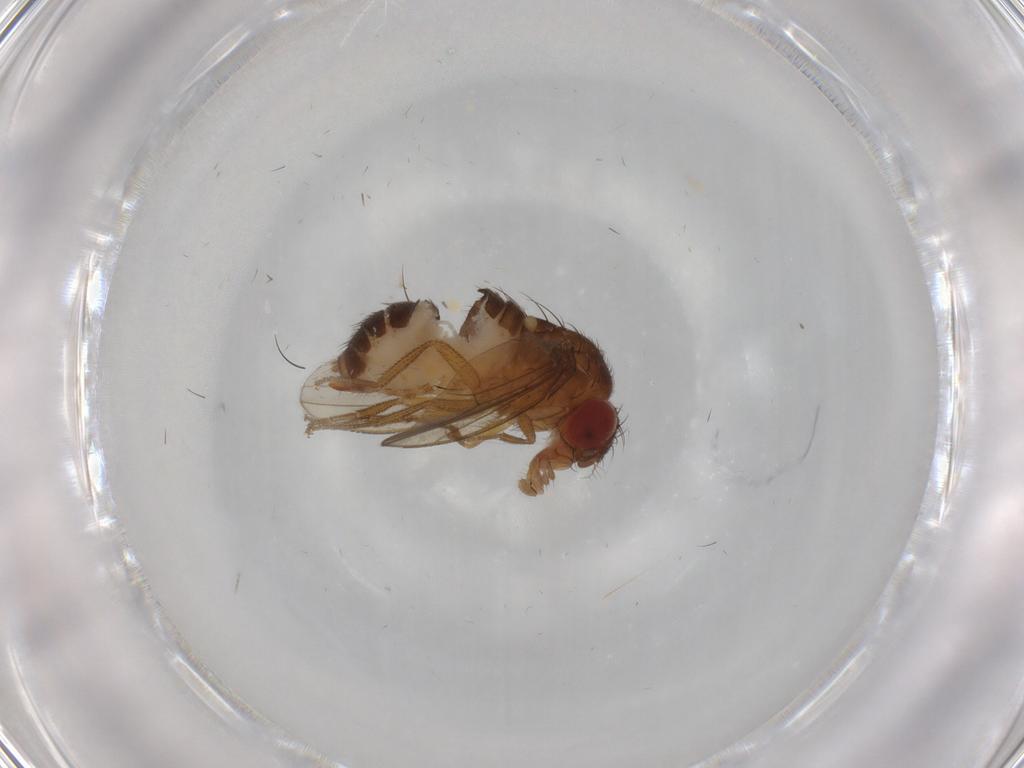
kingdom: Animalia
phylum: Arthropoda
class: Insecta
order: Diptera
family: Drosophilidae
